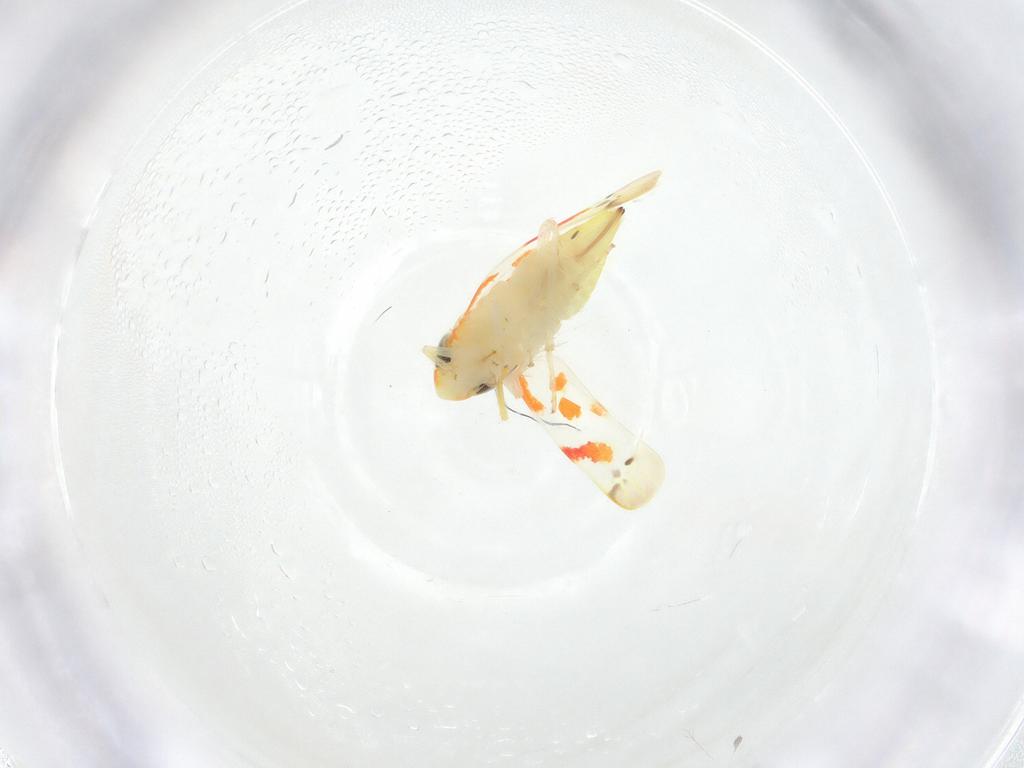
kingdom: Animalia
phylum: Arthropoda
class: Insecta
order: Hemiptera
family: Cicadellidae
